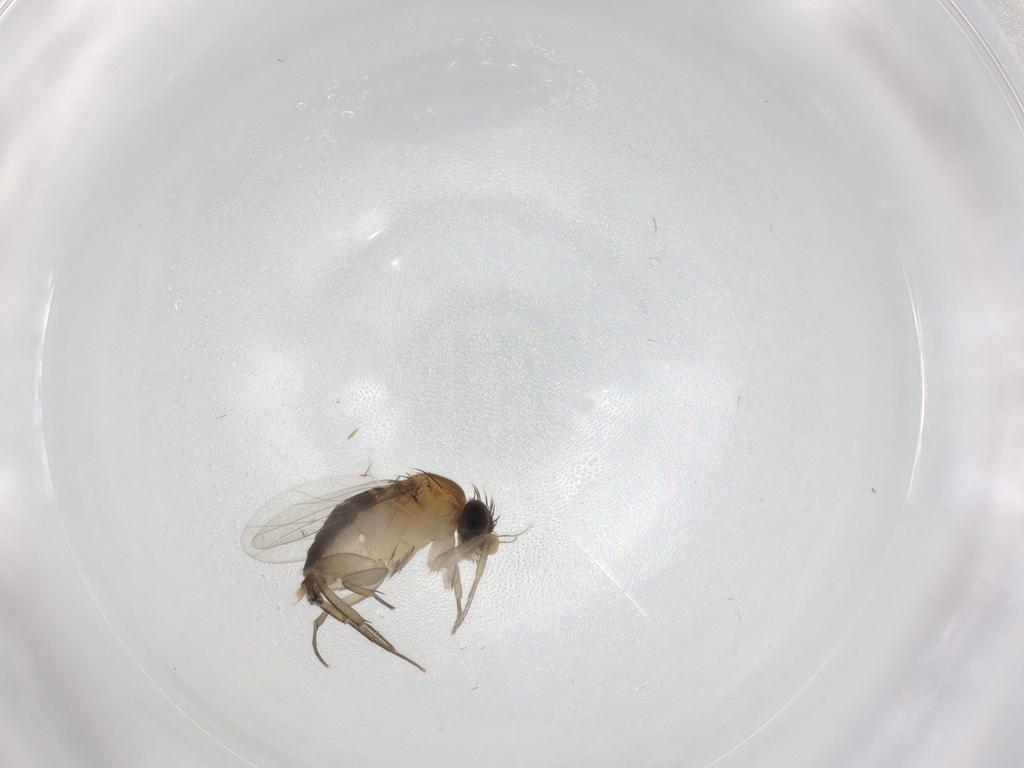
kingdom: Animalia
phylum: Arthropoda
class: Insecta
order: Diptera
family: Phoridae
